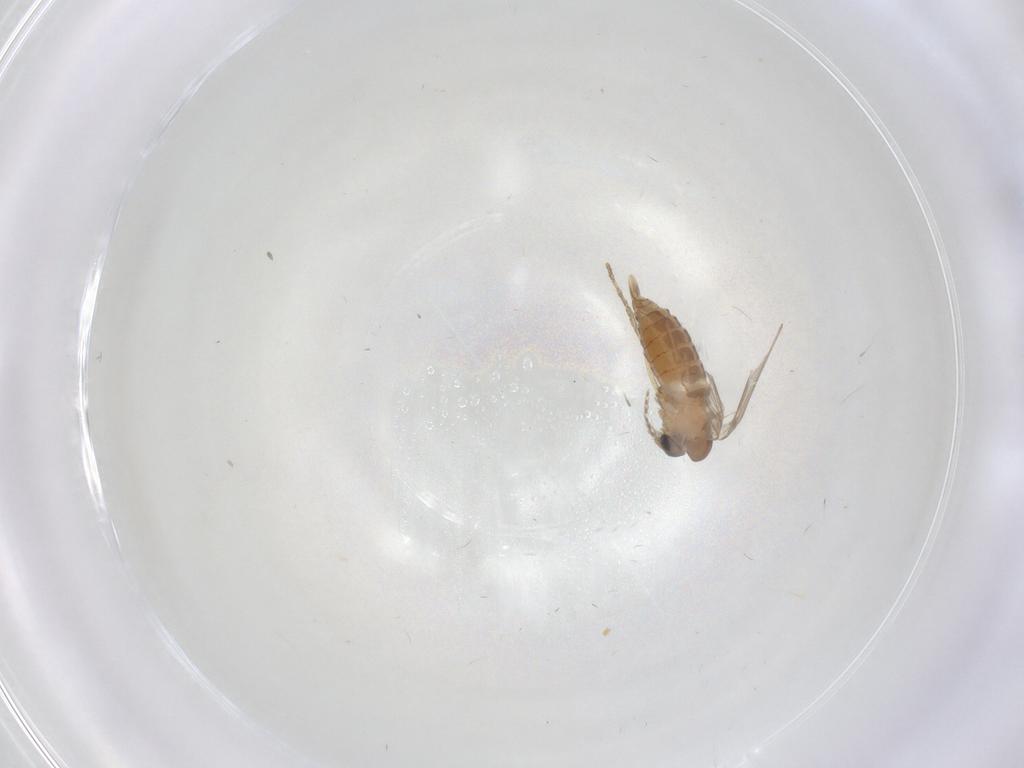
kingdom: Animalia
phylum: Arthropoda
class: Insecta
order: Diptera
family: Psychodidae
